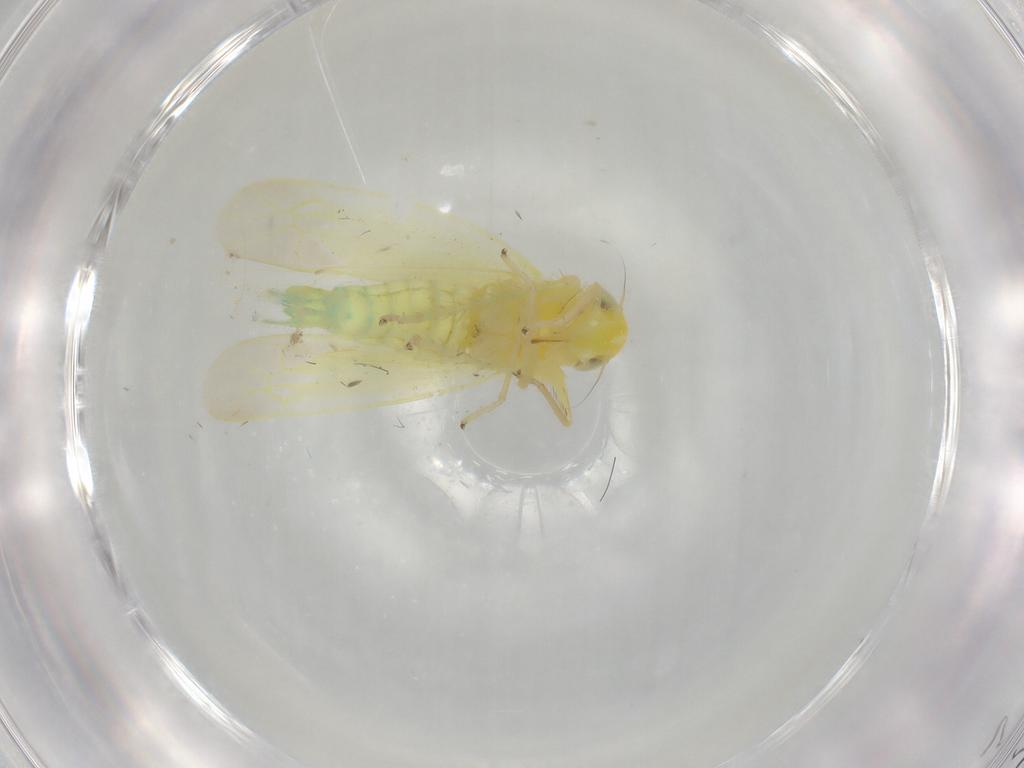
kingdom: Animalia
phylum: Arthropoda
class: Insecta
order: Hemiptera
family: Cicadellidae
